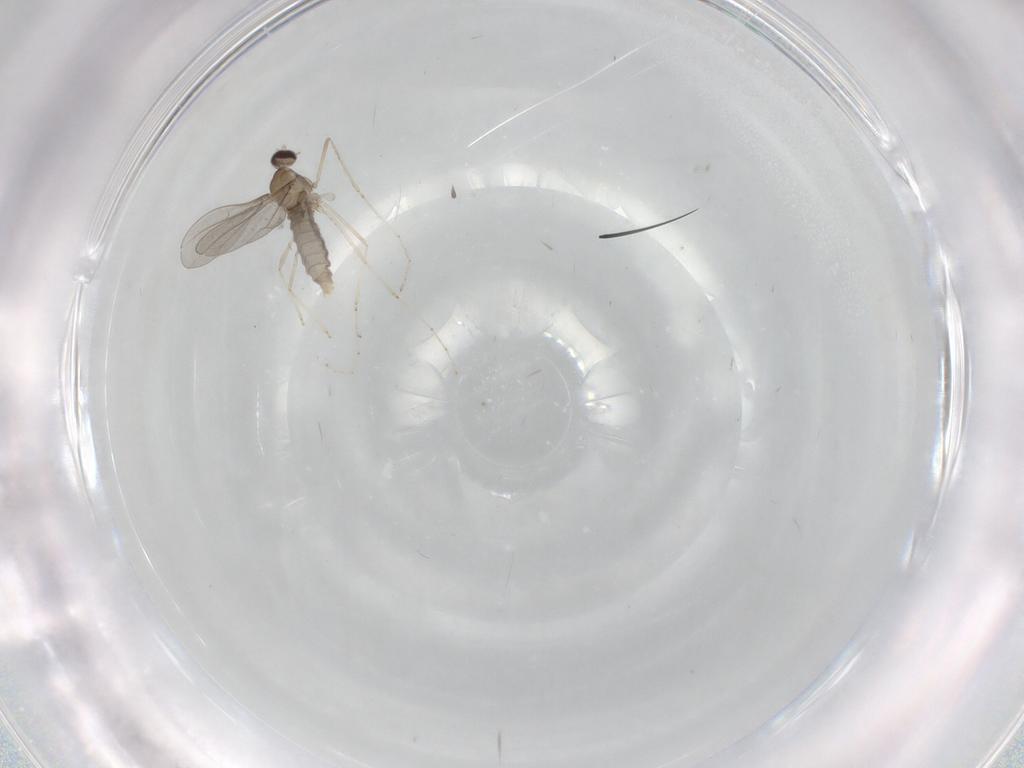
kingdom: Animalia
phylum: Arthropoda
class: Insecta
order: Diptera
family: Cecidomyiidae
